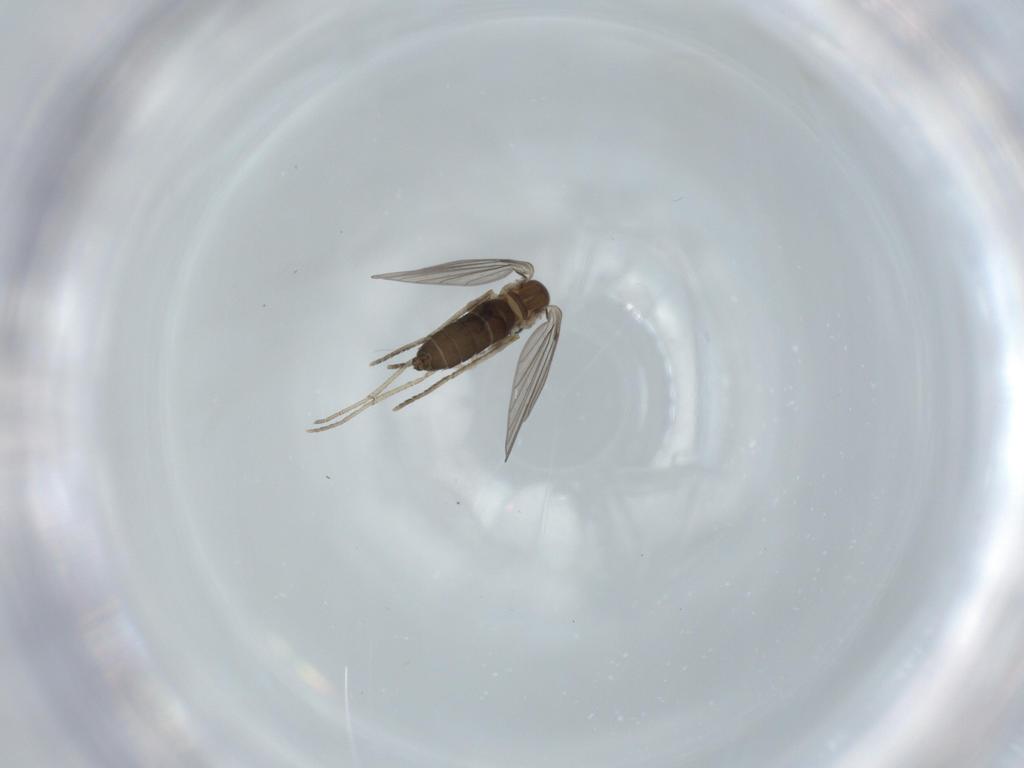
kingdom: Animalia
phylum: Arthropoda
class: Insecta
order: Diptera
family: Psychodidae
